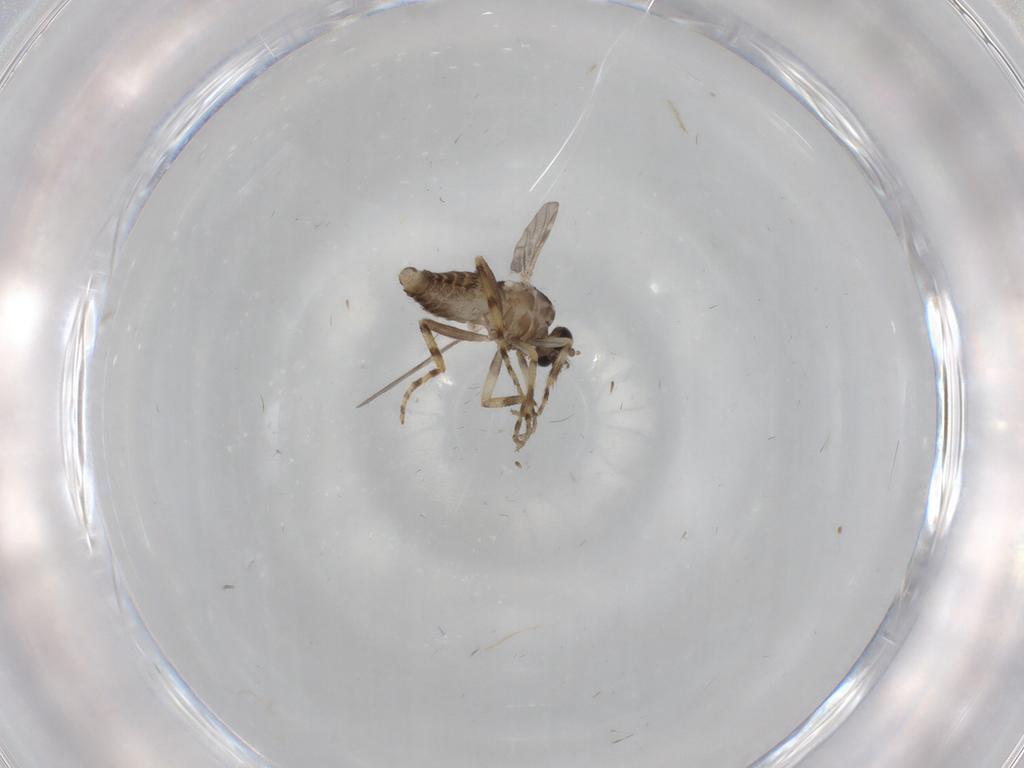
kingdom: Animalia
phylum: Arthropoda
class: Insecta
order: Diptera
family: Ceratopogonidae
